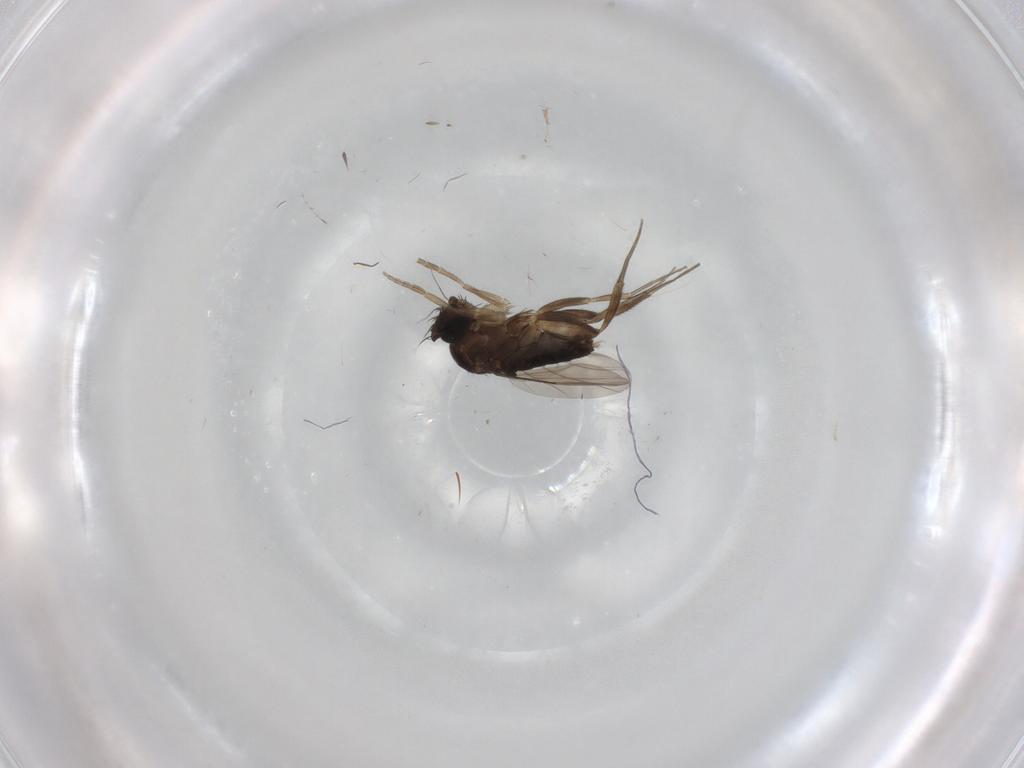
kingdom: Animalia
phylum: Arthropoda
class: Insecta
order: Diptera
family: Phoridae
